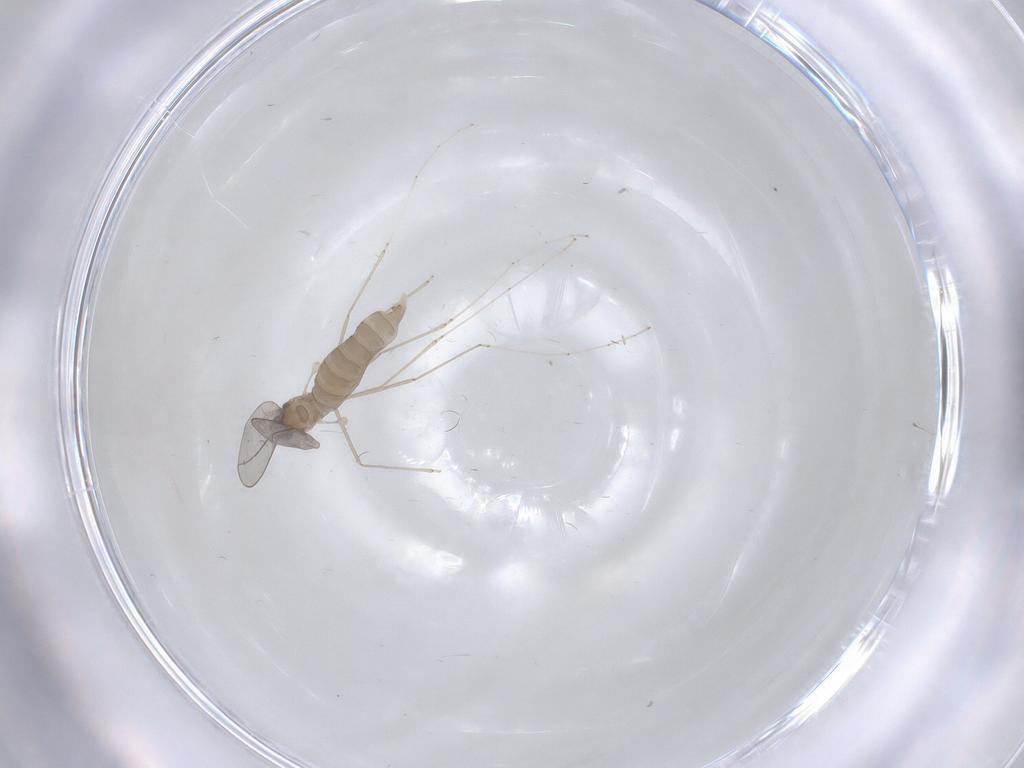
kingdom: Animalia
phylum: Arthropoda
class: Insecta
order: Diptera
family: Cecidomyiidae
